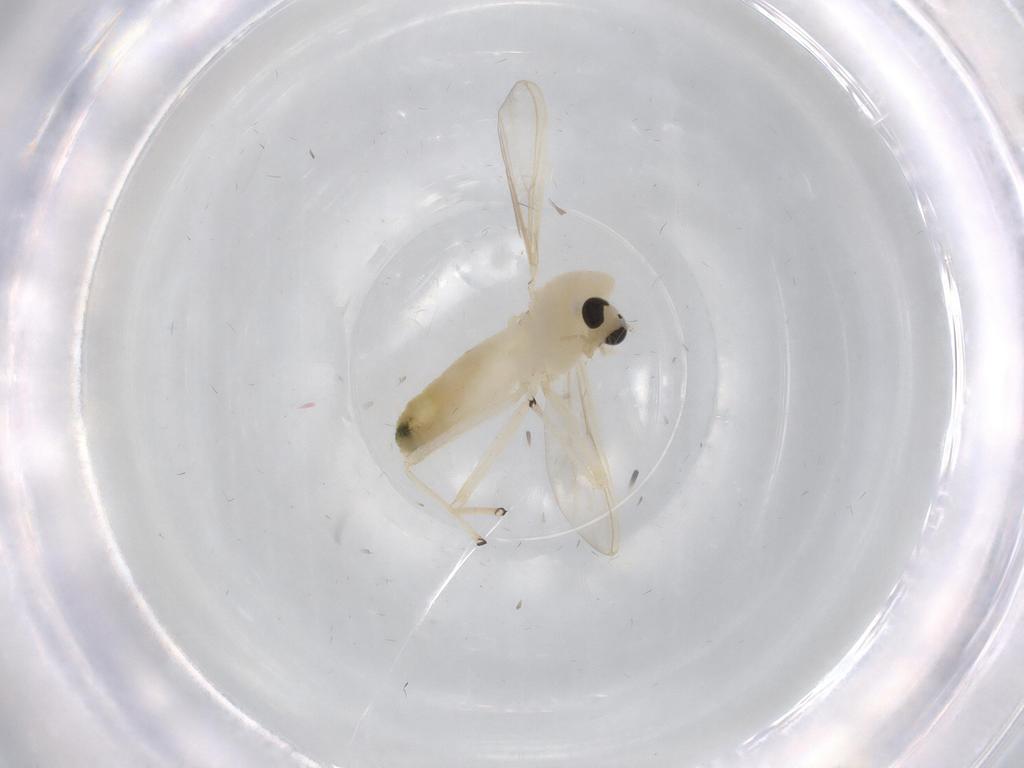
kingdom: Animalia
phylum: Arthropoda
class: Insecta
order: Diptera
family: Chironomidae
